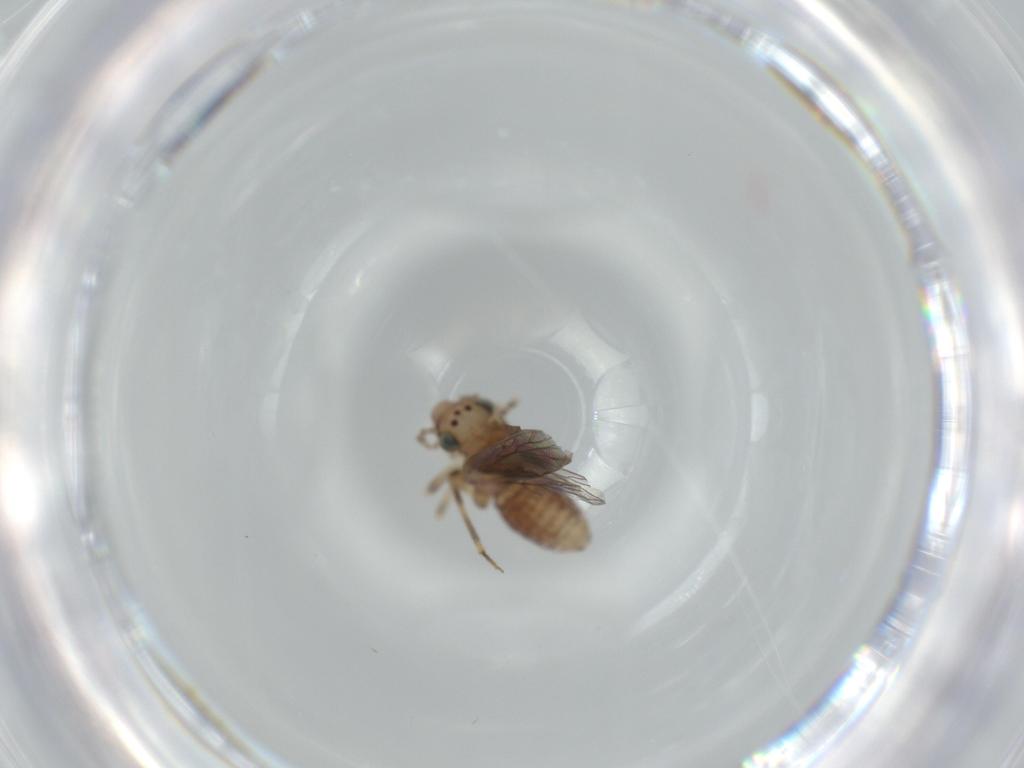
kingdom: Animalia
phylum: Arthropoda
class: Insecta
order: Psocodea
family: Lepidopsocidae
